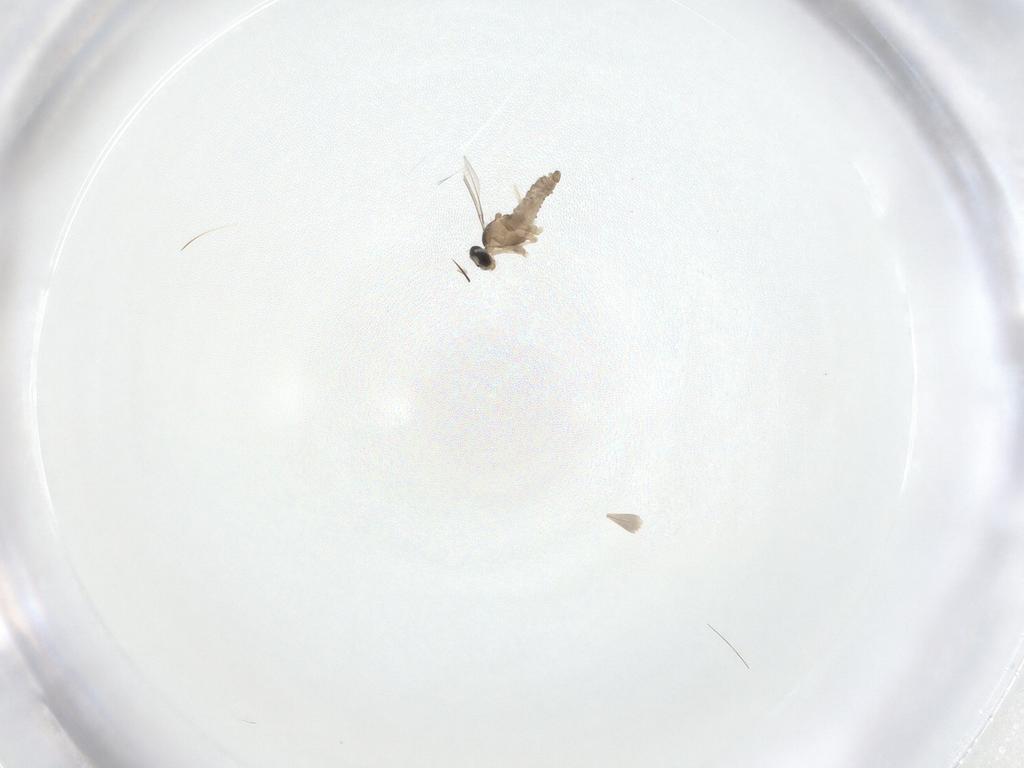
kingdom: Animalia
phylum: Arthropoda
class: Insecta
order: Diptera
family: Cecidomyiidae
